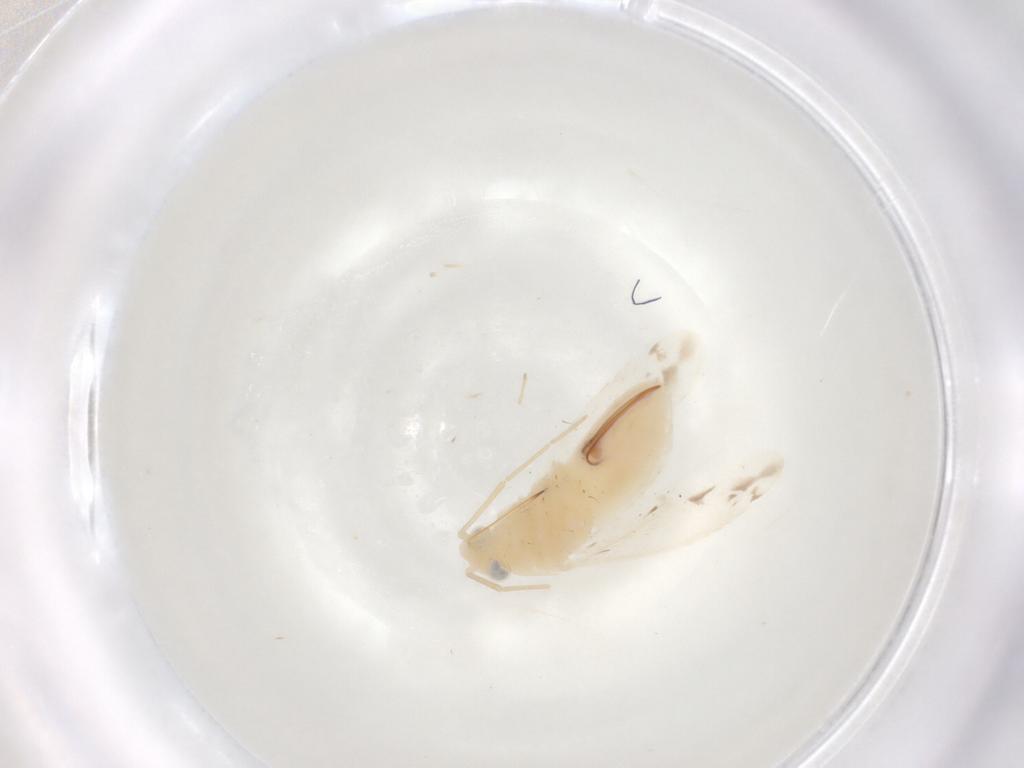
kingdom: Animalia
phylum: Arthropoda
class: Insecta
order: Hemiptera
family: Miridae
